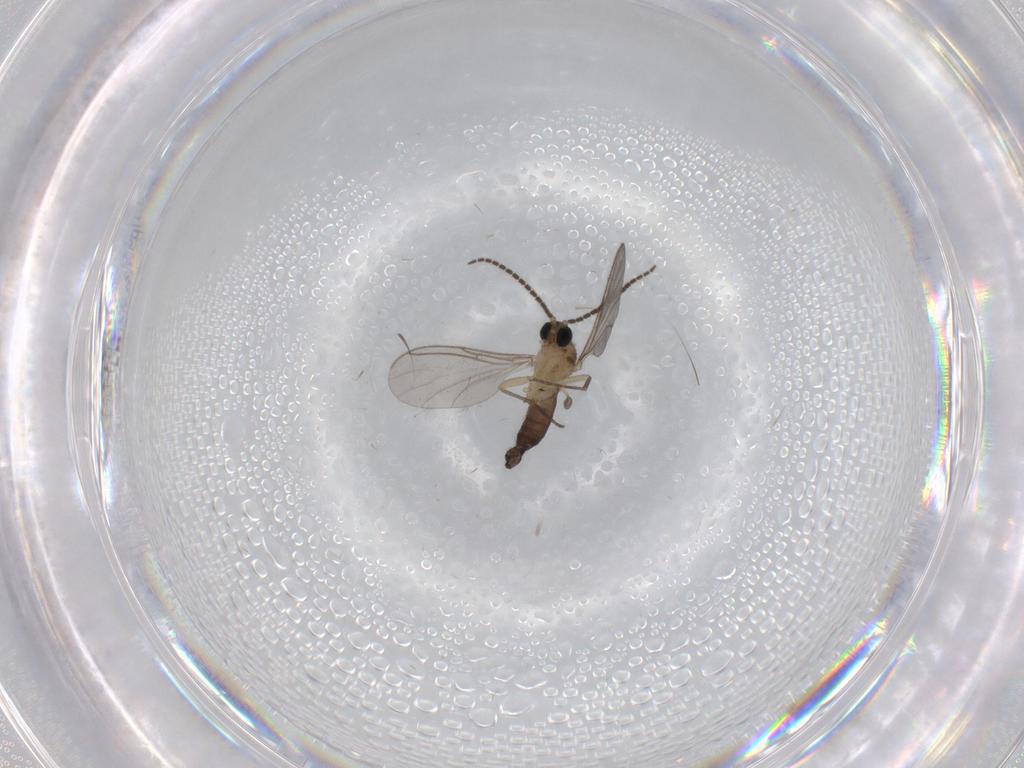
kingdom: Animalia
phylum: Arthropoda
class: Insecta
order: Diptera
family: Sciaridae
